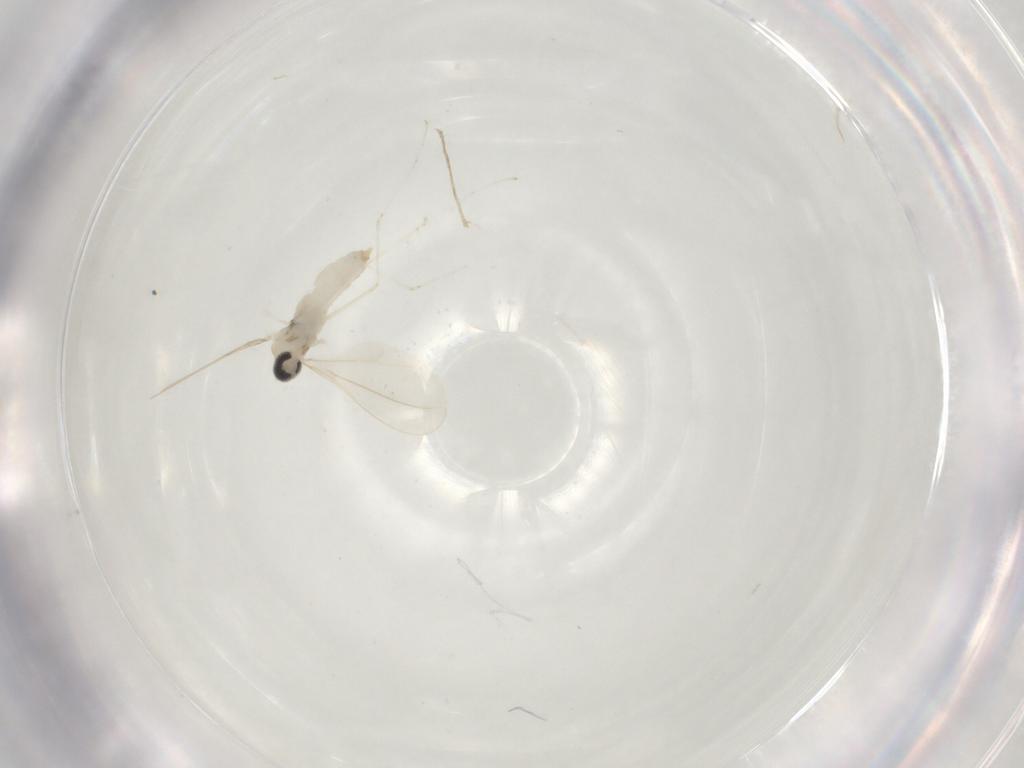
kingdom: Animalia
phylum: Arthropoda
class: Insecta
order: Diptera
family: Cecidomyiidae
